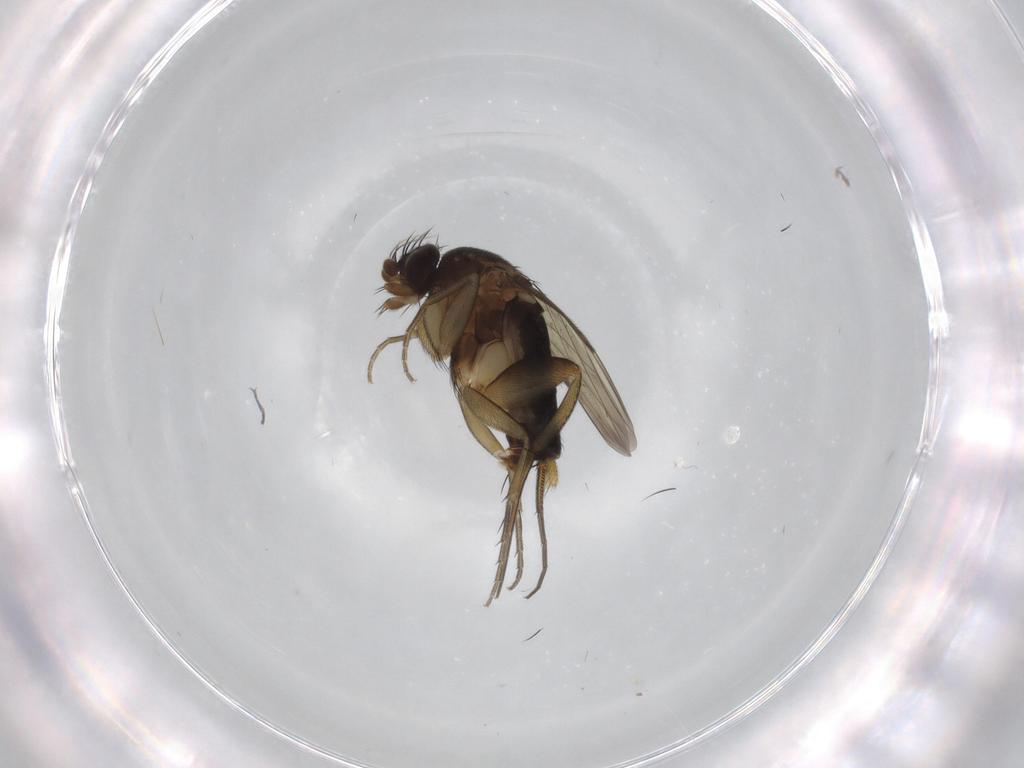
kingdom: Animalia
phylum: Arthropoda
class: Insecta
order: Diptera
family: Phoridae
